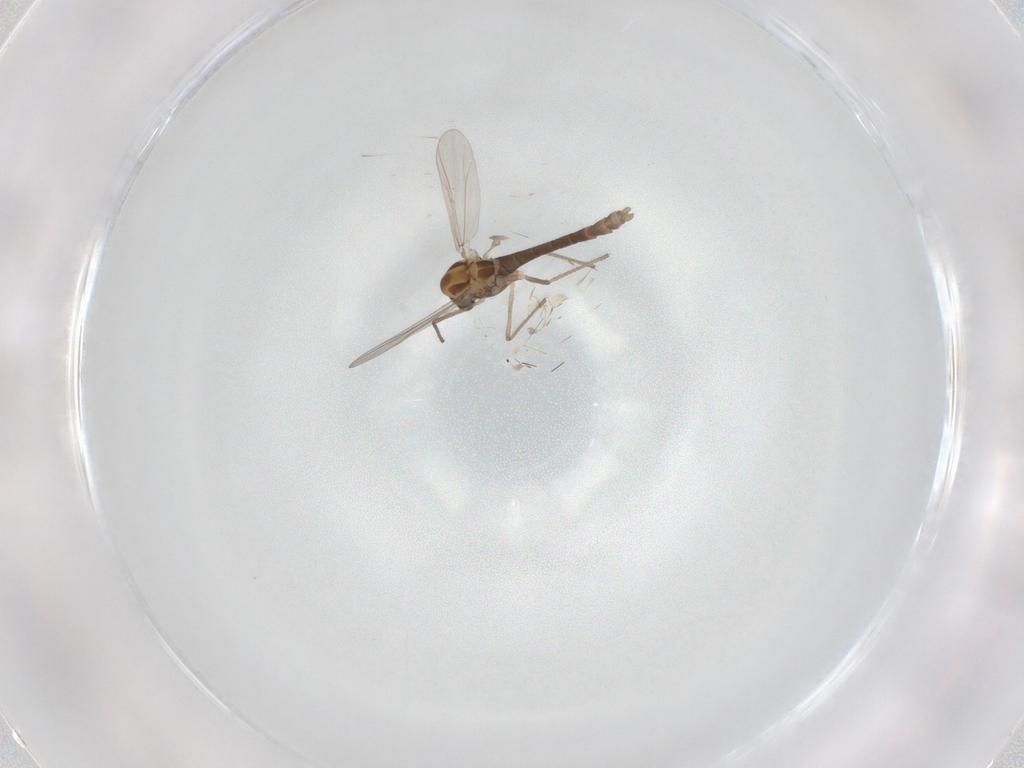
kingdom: Animalia
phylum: Arthropoda
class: Insecta
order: Diptera
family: Chironomidae
